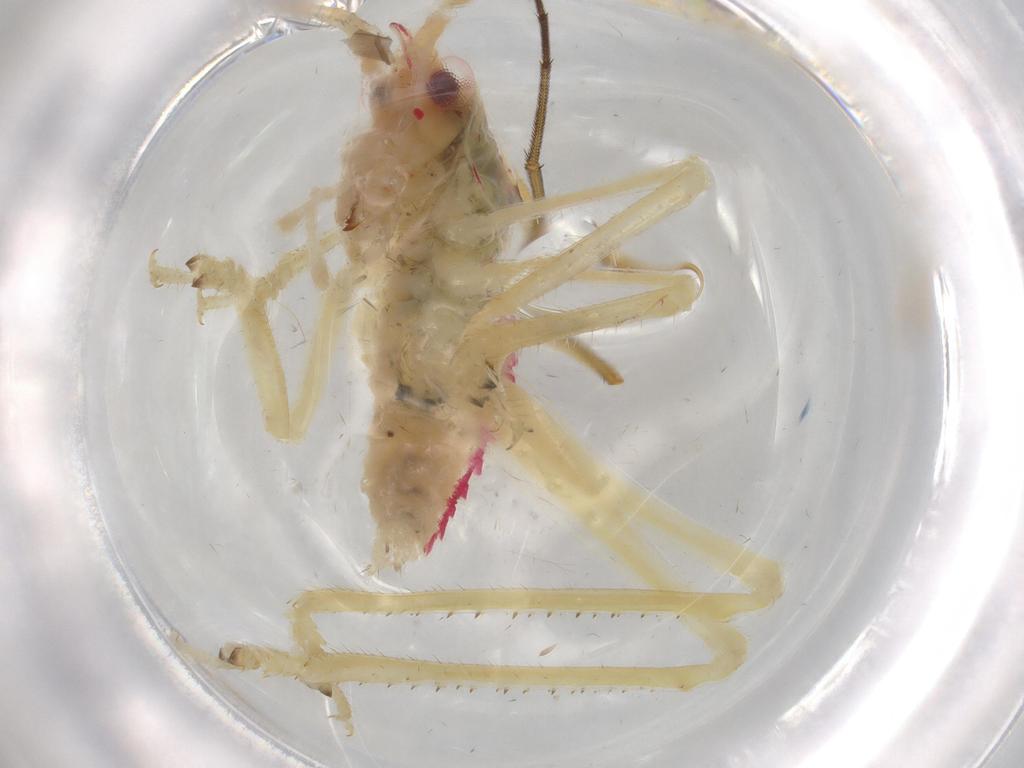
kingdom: Animalia
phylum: Arthropoda
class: Insecta
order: Orthoptera
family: Tettigoniidae
